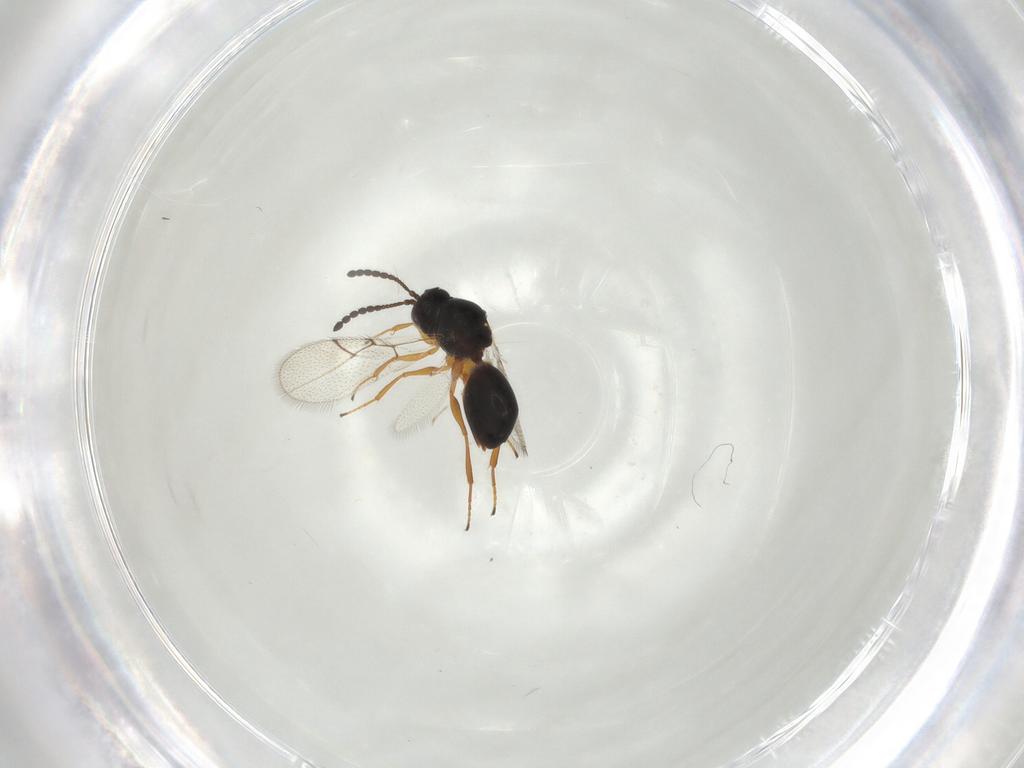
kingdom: Animalia
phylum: Arthropoda
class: Insecta
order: Hymenoptera
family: Figitidae
